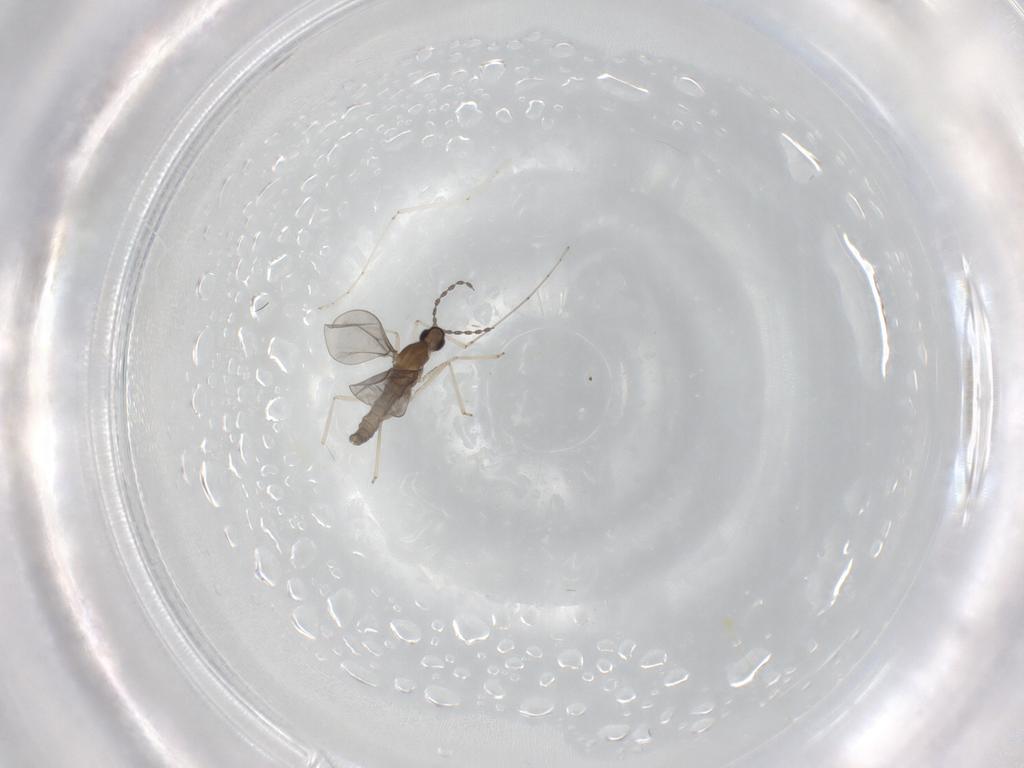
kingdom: Animalia
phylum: Arthropoda
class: Insecta
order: Diptera
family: Cecidomyiidae
